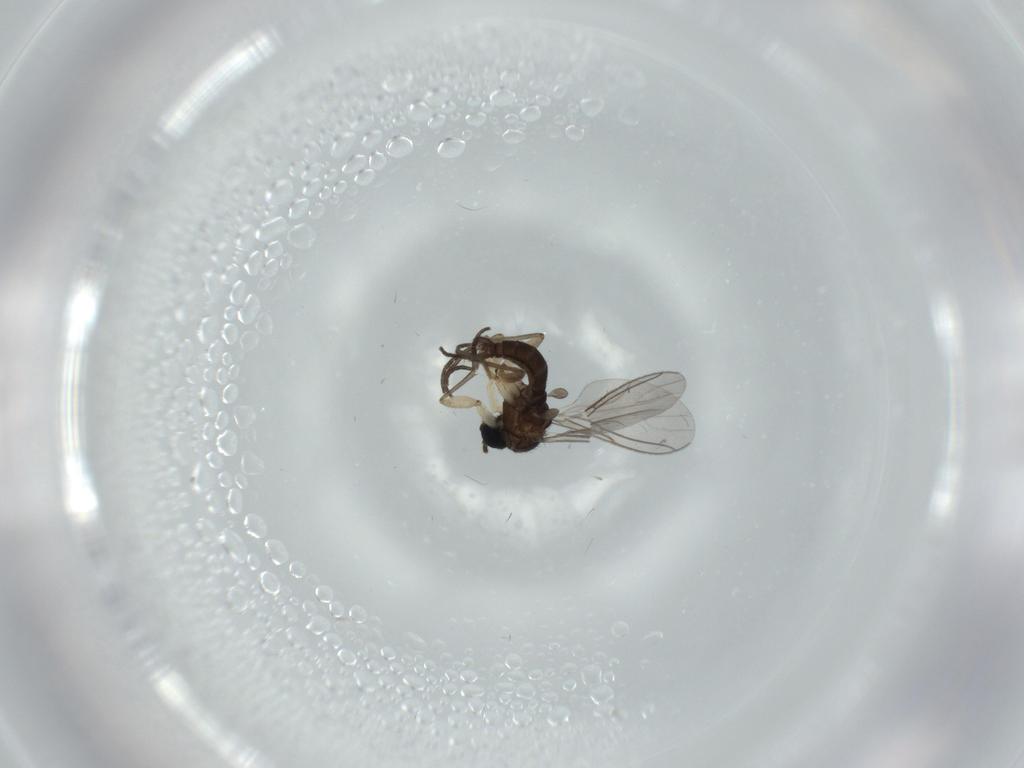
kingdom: Animalia
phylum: Arthropoda
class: Insecta
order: Diptera
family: Sciaridae
